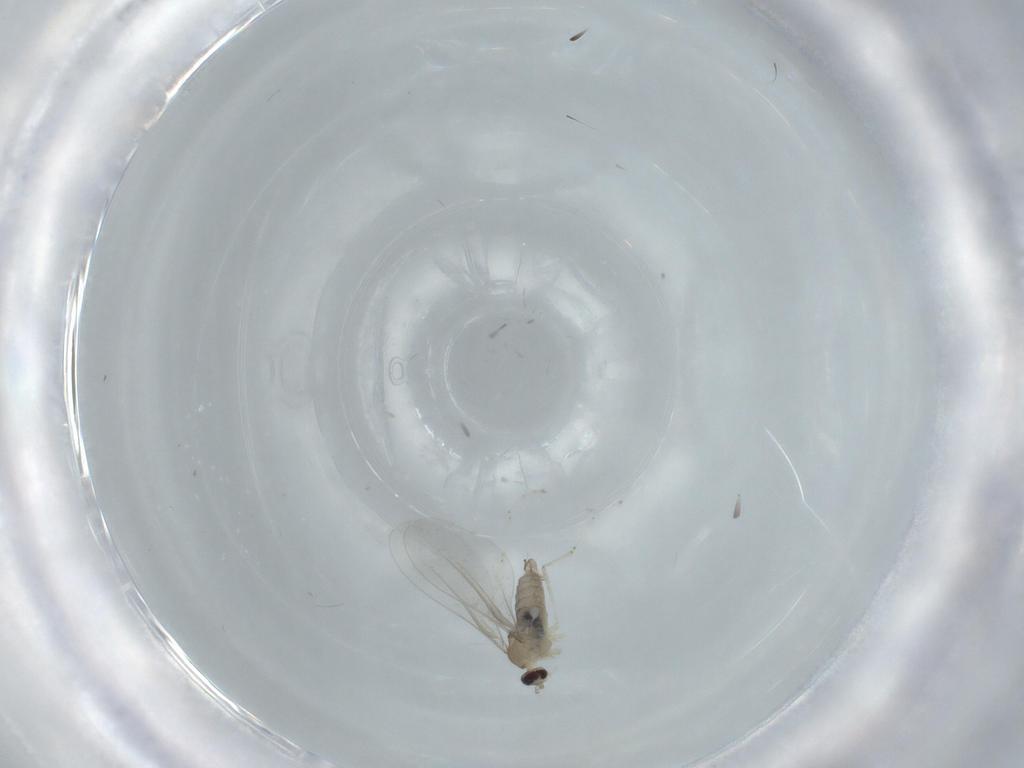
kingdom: Animalia
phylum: Arthropoda
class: Insecta
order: Diptera
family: Sciaridae
